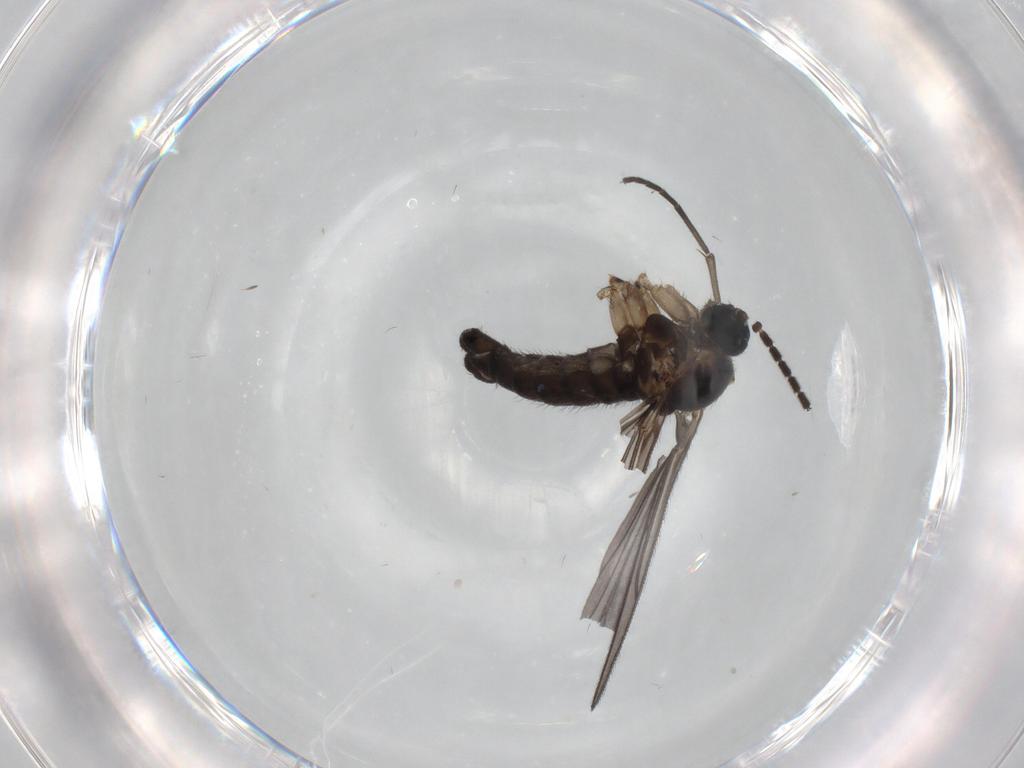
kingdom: Animalia
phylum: Arthropoda
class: Insecta
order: Diptera
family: Sciaridae
